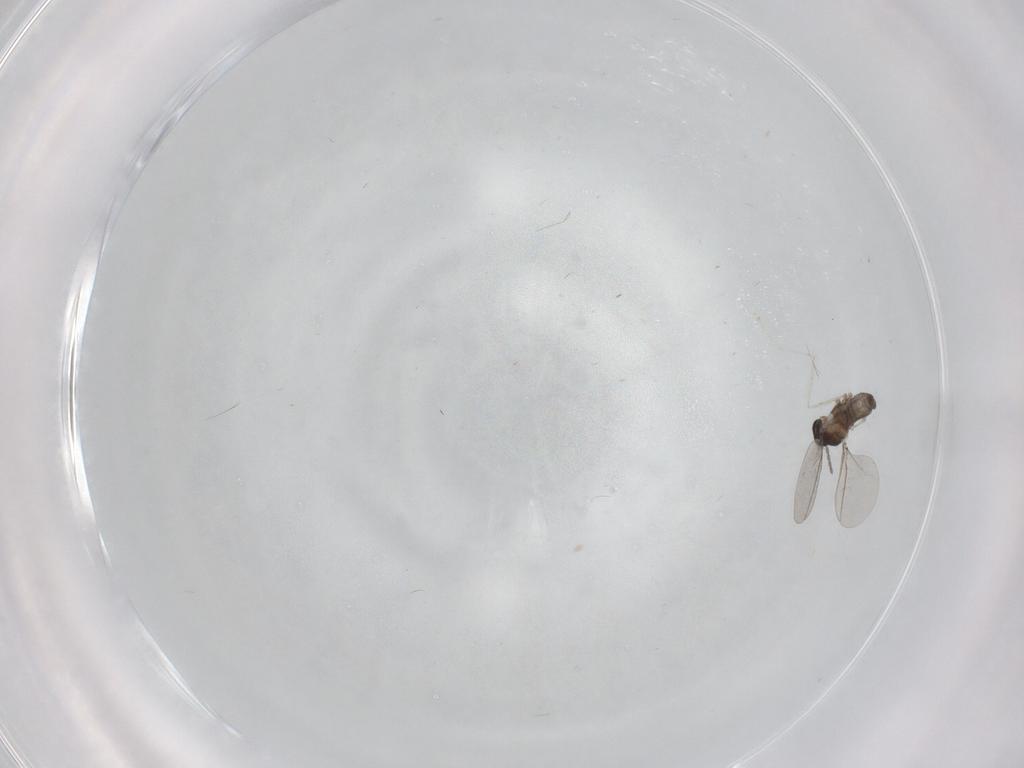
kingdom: Animalia
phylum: Arthropoda
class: Insecta
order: Diptera
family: Cecidomyiidae
